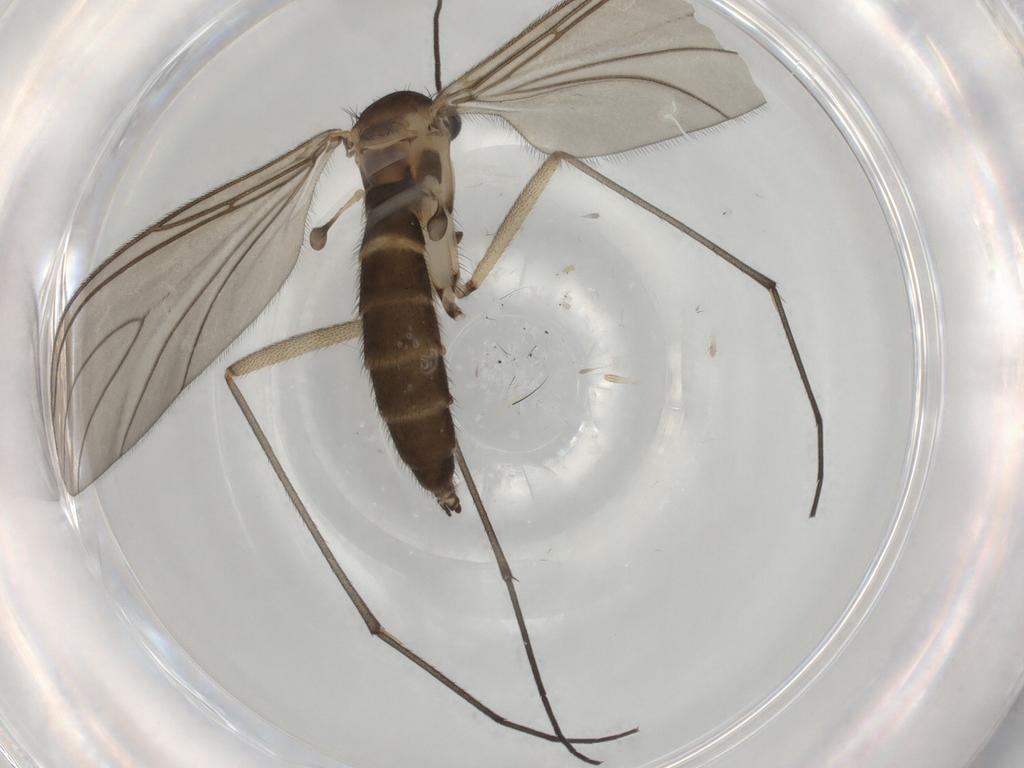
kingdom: Animalia
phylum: Arthropoda
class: Insecta
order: Diptera
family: Sciaridae
